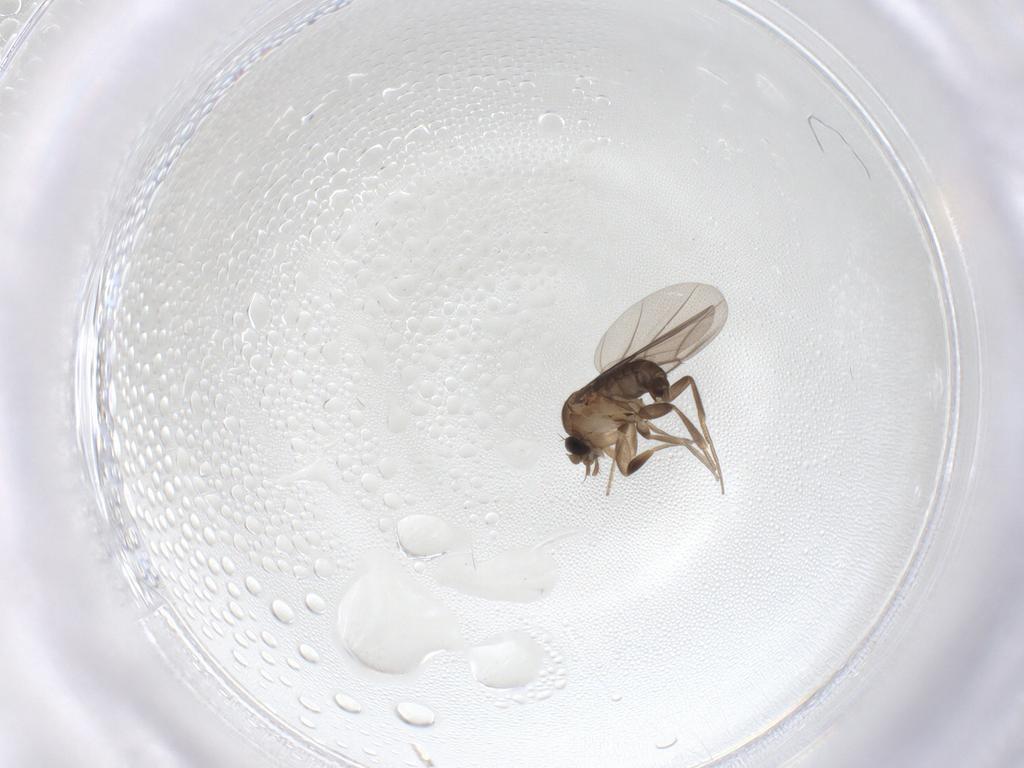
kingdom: Animalia
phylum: Arthropoda
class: Insecta
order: Diptera
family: Phoridae
